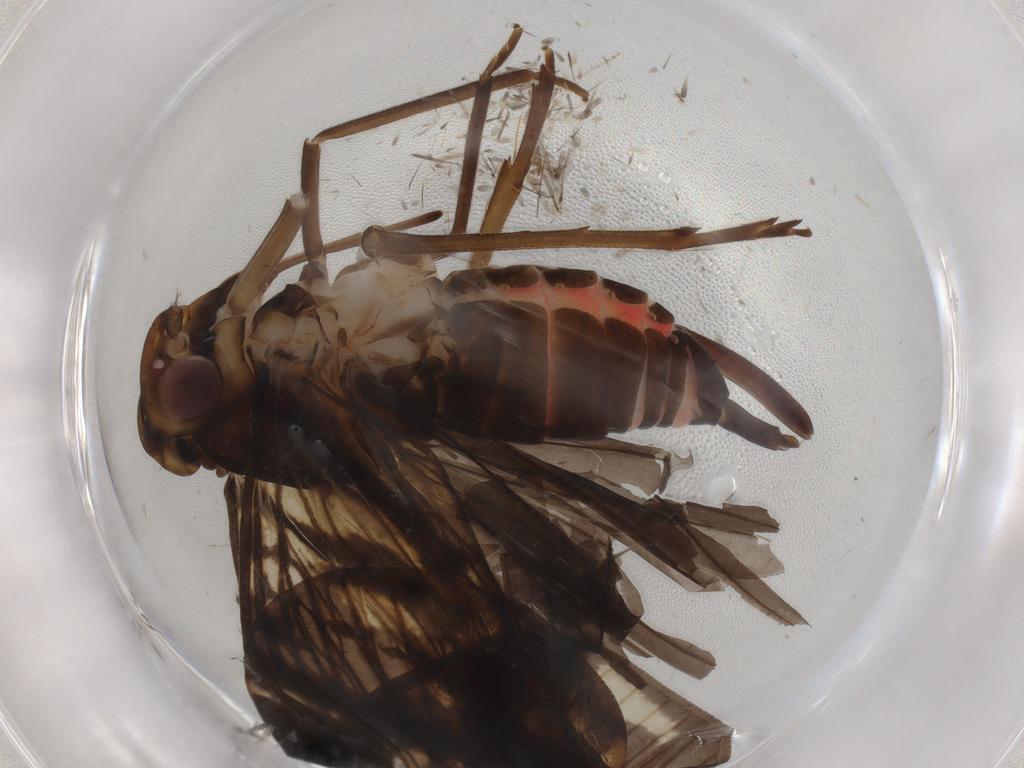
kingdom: Animalia
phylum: Arthropoda
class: Insecta
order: Hemiptera
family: Cixiidae
